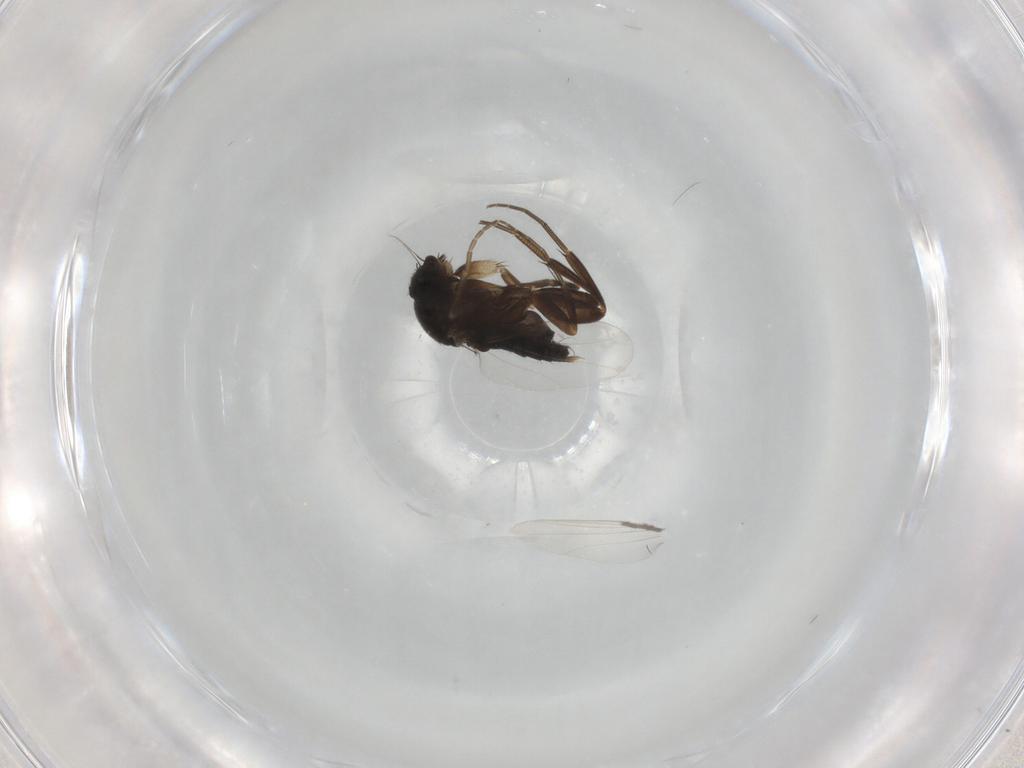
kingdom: Animalia
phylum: Arthropoda
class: Insecta
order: Diptera
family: Phoridae
